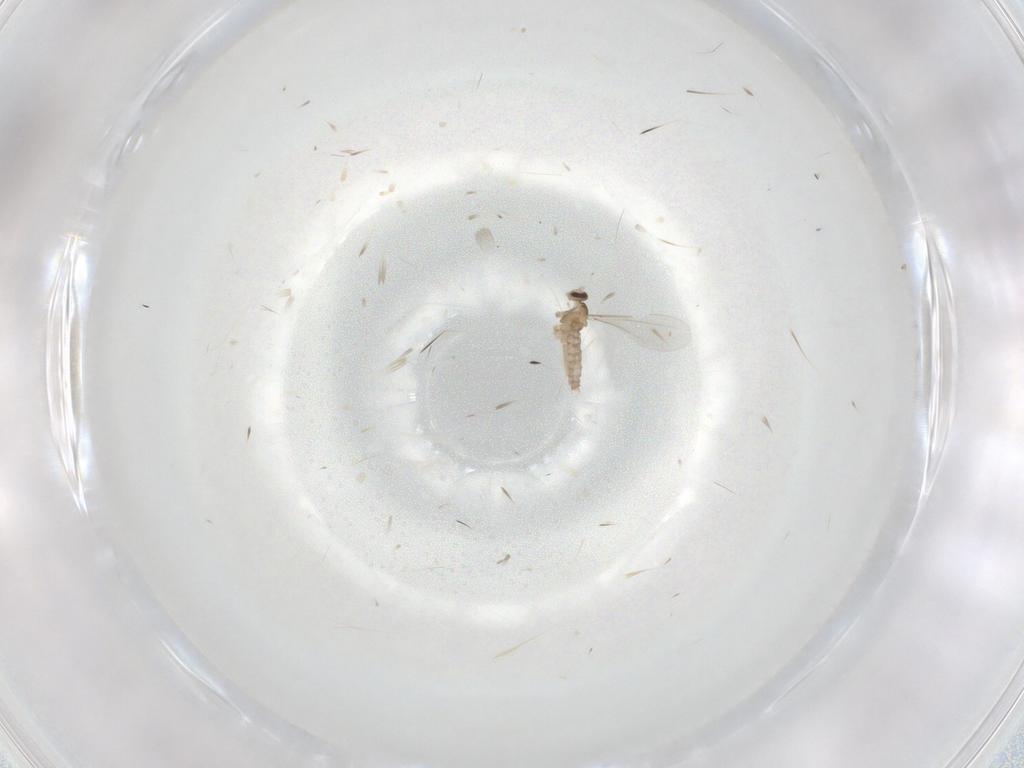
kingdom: Animalia
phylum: Arthropoda
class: Insecta
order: Diptera
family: Cecidomyiidae
